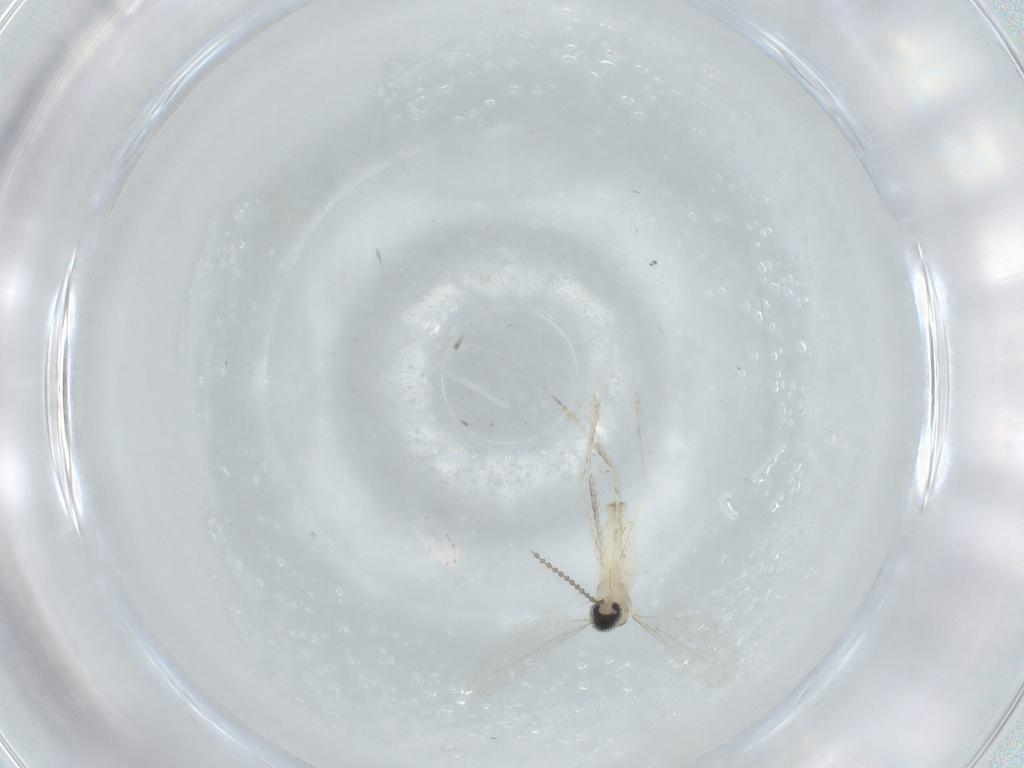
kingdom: Animalia
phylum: Arthropoda
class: Insecta
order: Diptera
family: Cecidomyiidae
